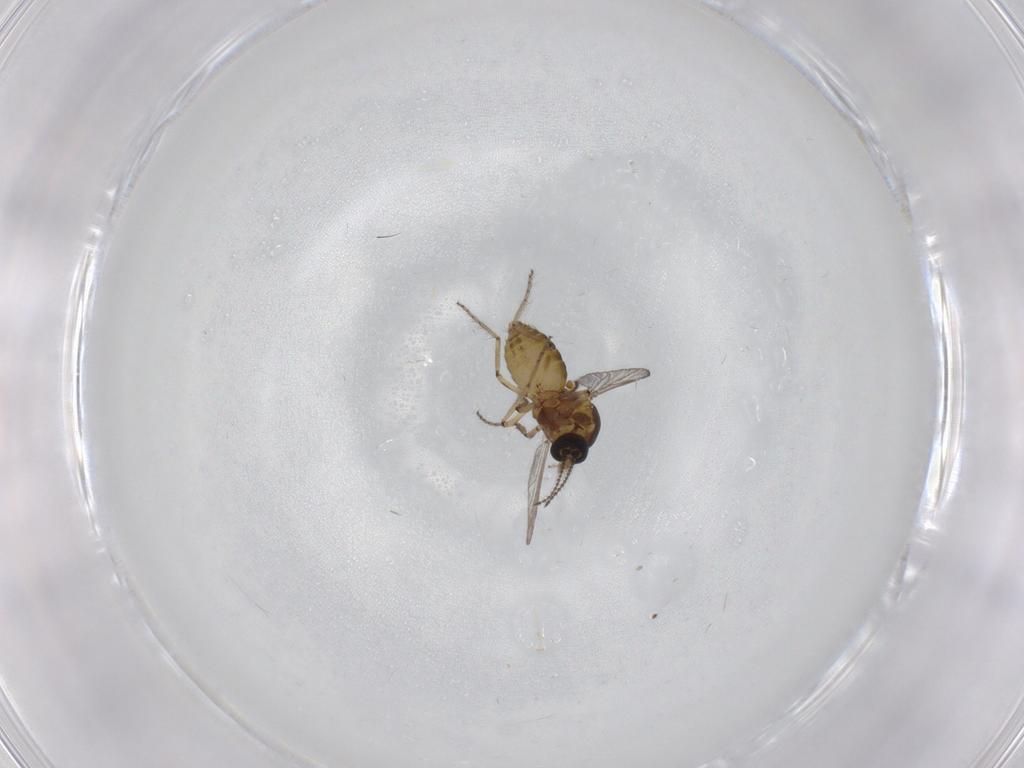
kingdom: Animalia
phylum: Arthropoda
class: Insecta
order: Diptera
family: Ceratopogonidae
